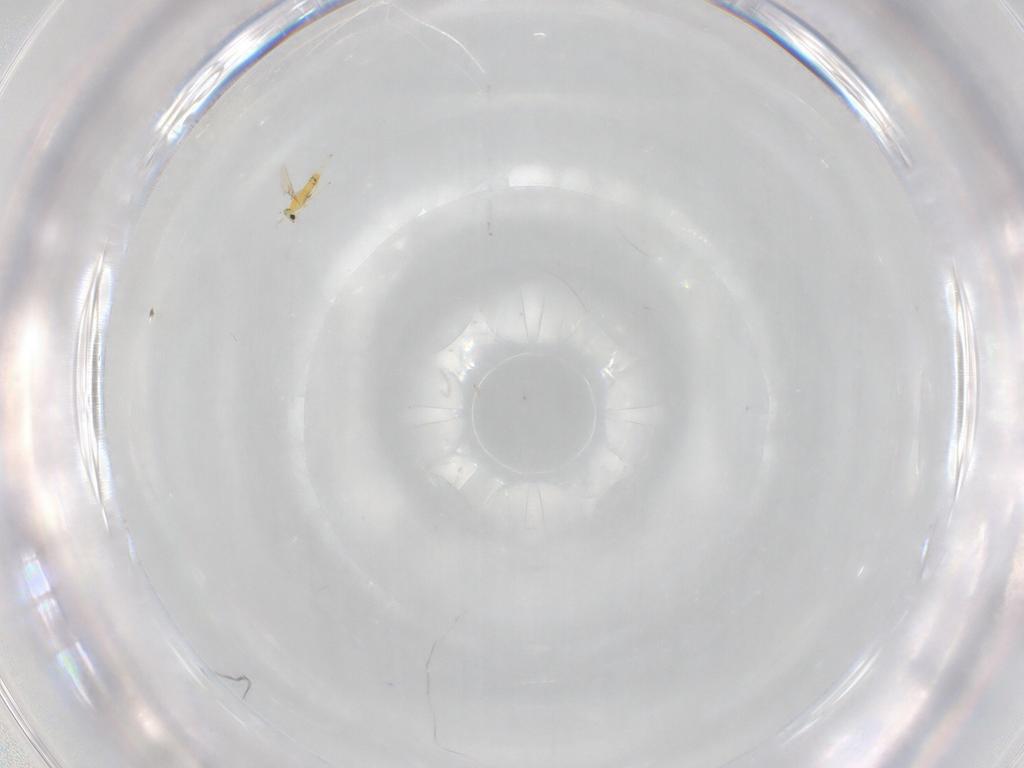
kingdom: Animalia
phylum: Arthropoda
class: Insecta
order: Hymenoptera
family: Trichogrammatidae
